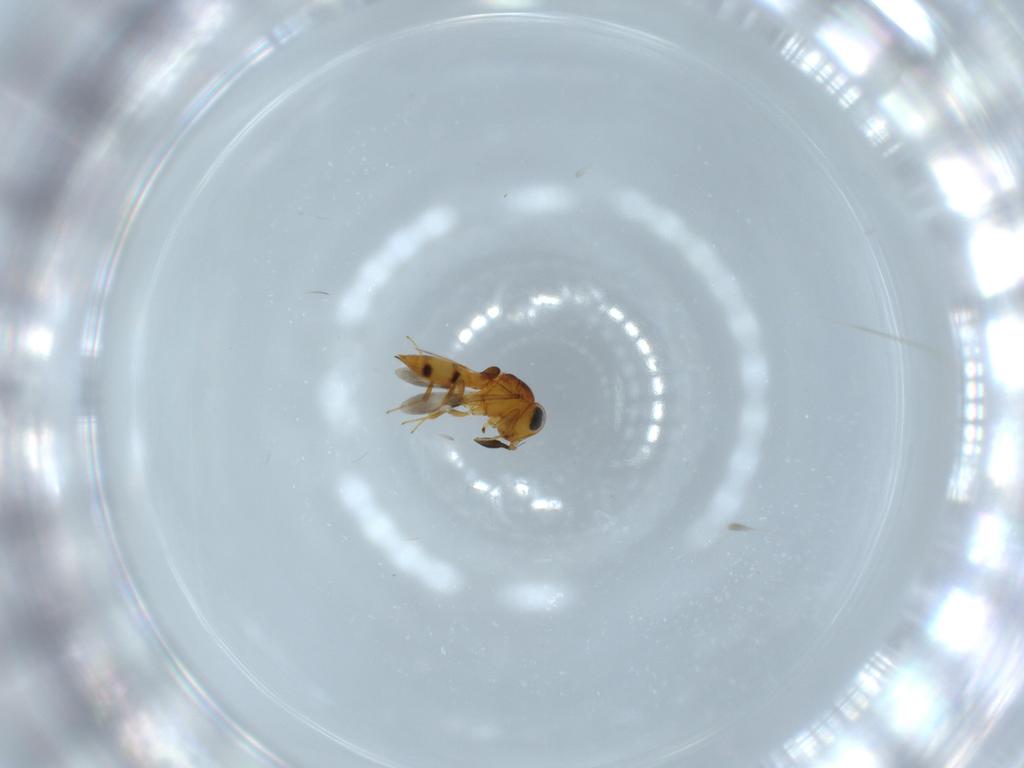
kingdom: Animalia
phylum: Arthropoda
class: Insecta
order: Hymenoptera
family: Scelionidae
